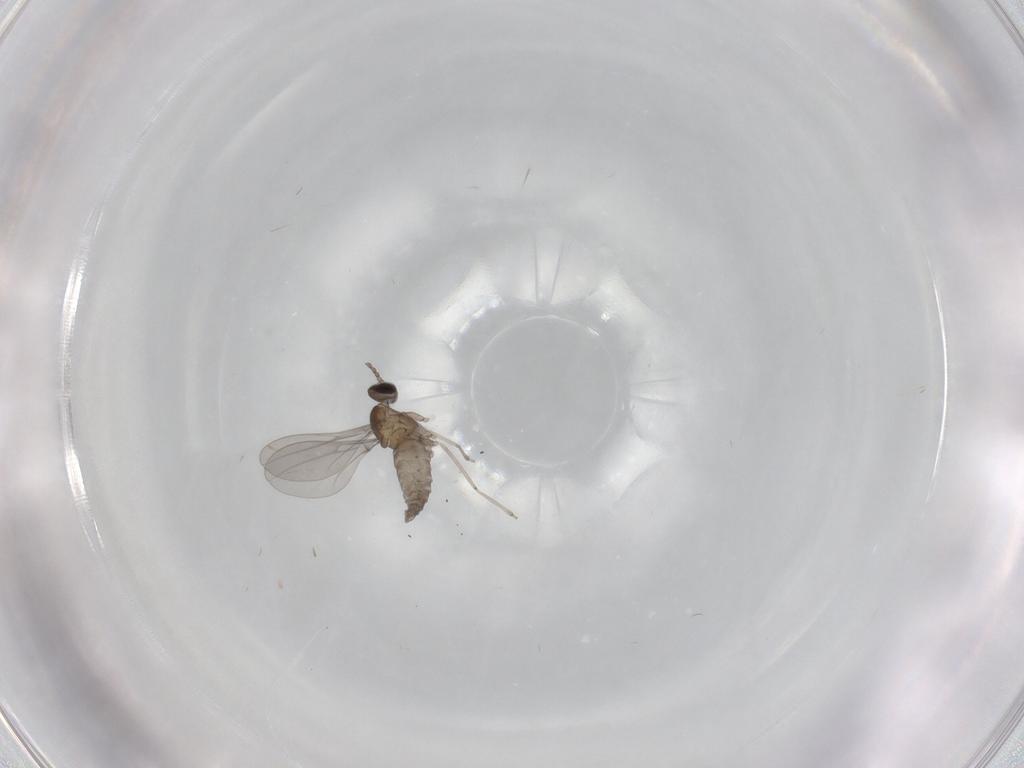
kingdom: Animalia
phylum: Arthropoda
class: Insecta
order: Diptera
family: Cecidomyiidae
